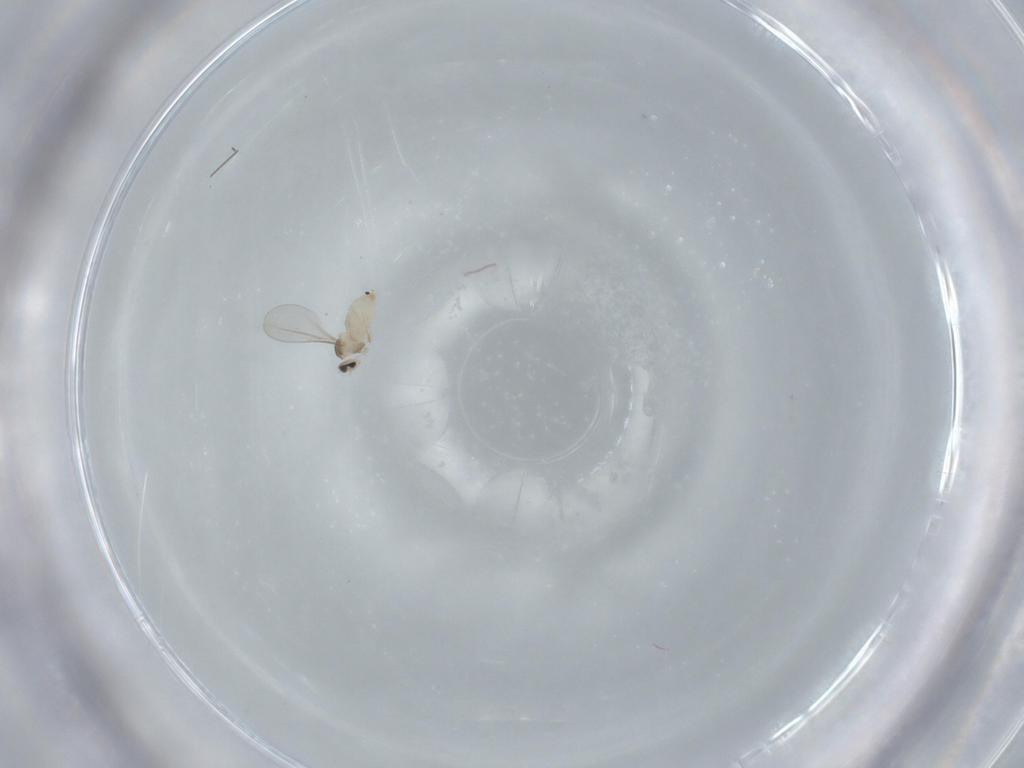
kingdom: Animalia
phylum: Arthropoda
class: Insecta
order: Diptera
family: Cecidomyiidae
